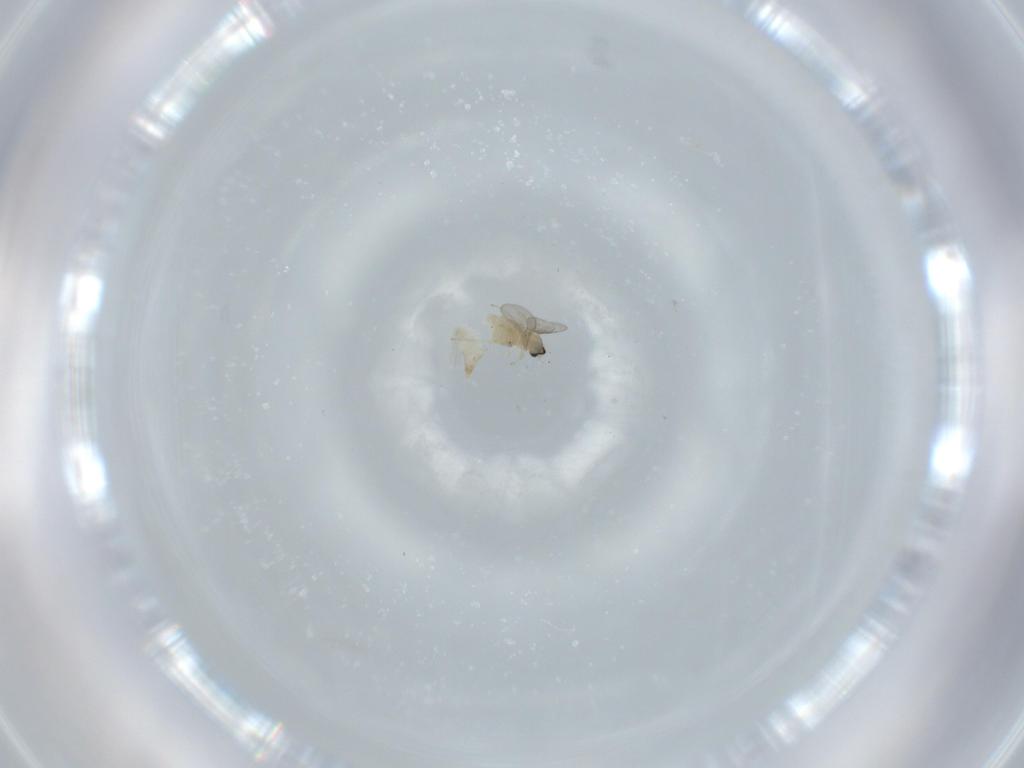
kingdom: Animalia
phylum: Arthropoda
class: Insecta
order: Diptera
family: Cecidomyiidae
